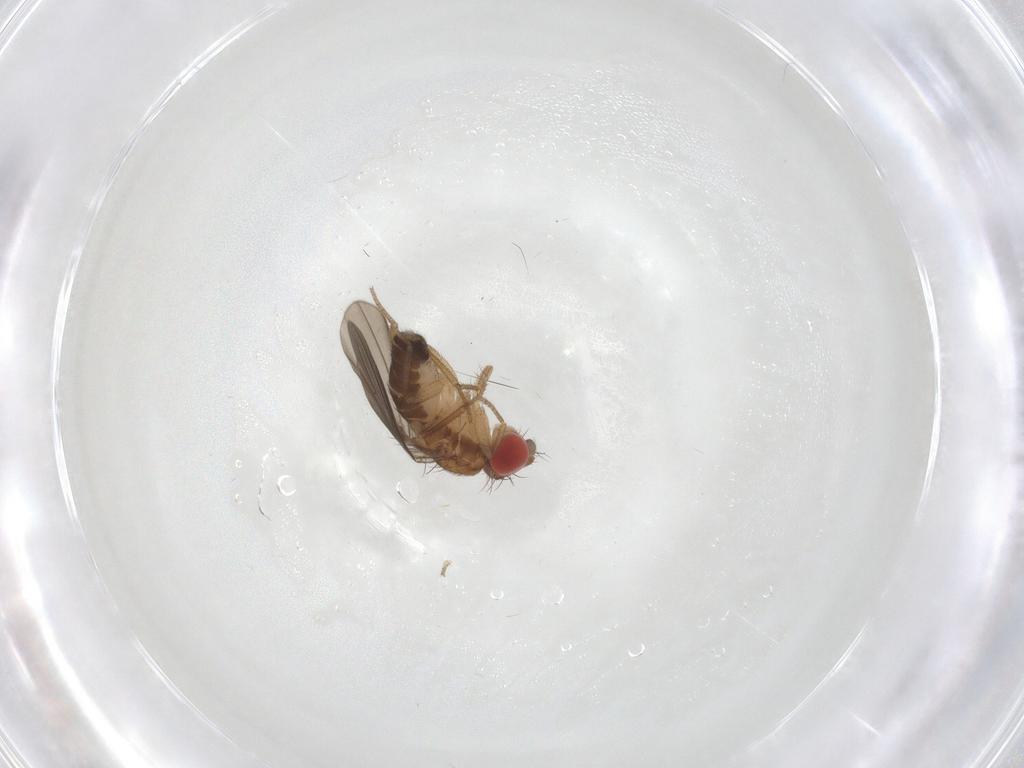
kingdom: Animalia
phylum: Arthropoda
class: Insecta
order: Diptera
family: Drosophilidae
